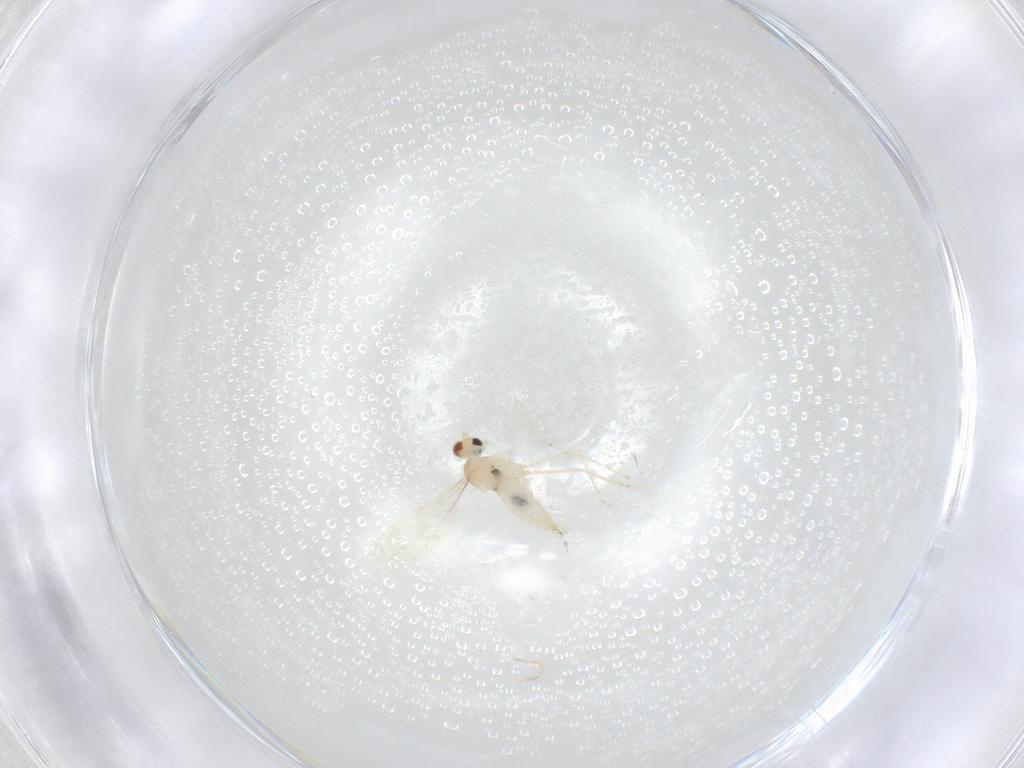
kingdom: Animalia
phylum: Arthropoda
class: Insecta
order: Diptera
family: Cecidomyiidae
